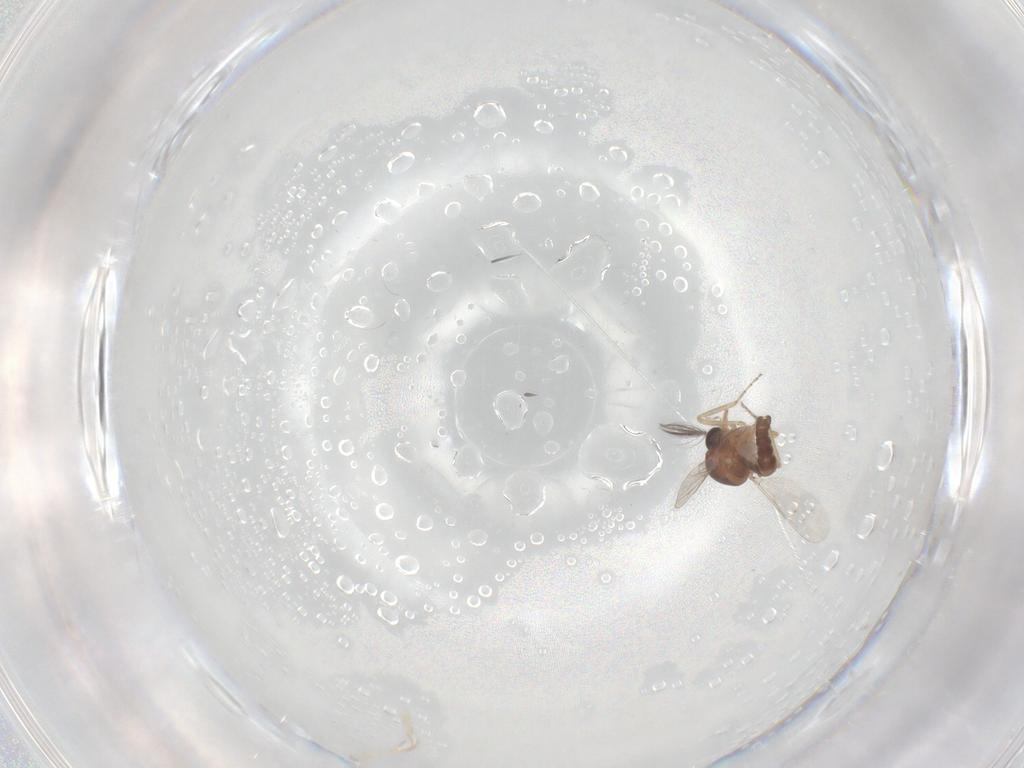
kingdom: Animalia
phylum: Arthropoda
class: Insecta
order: Diptera
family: Ceratopogonidae
